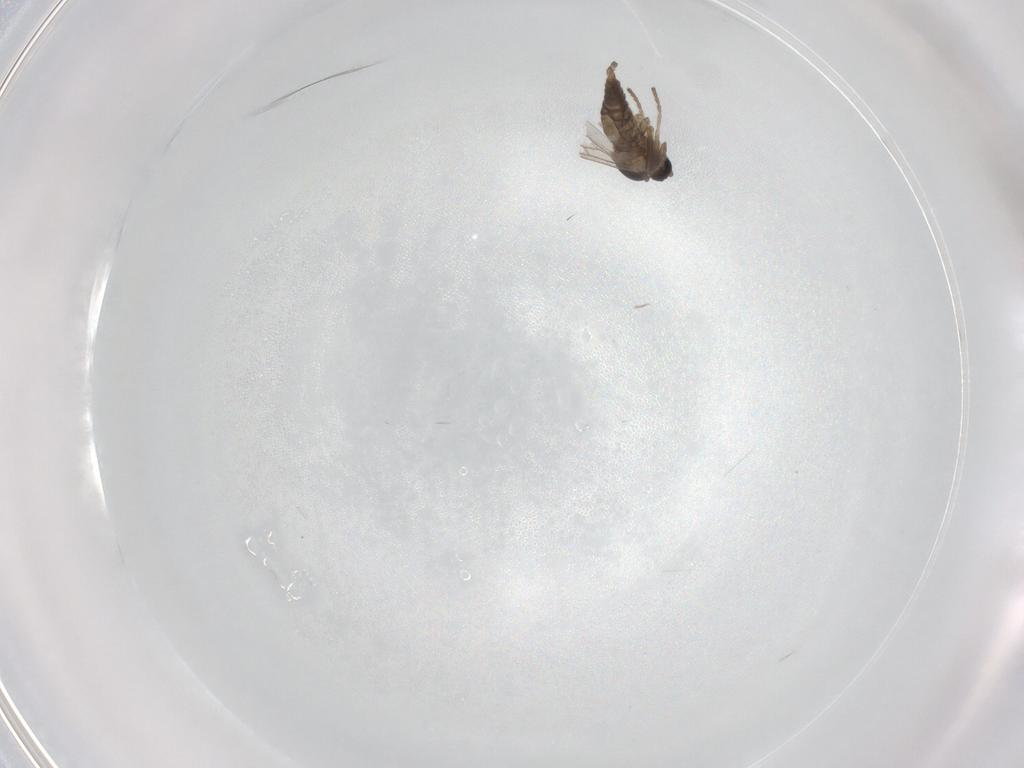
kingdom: Animalia
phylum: Arthropoda
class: Insecta
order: Diptera
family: Cecidomyiidae
